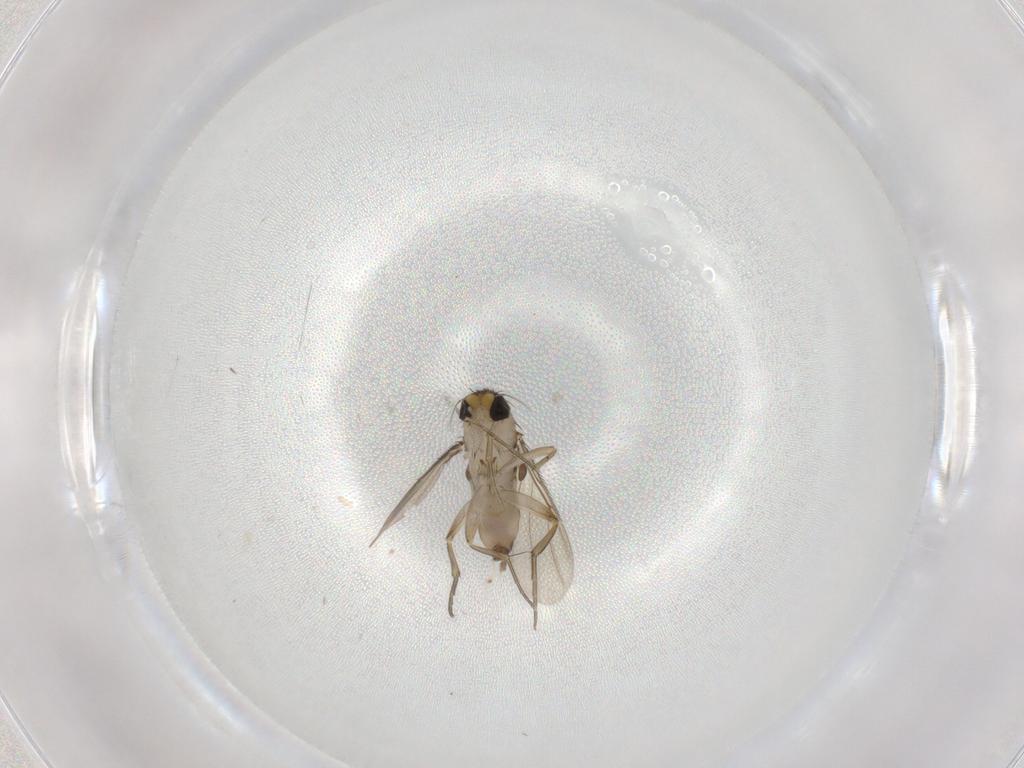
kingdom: Animalia
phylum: Arthropoda
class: Insecta
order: Diptera
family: Phoridae
